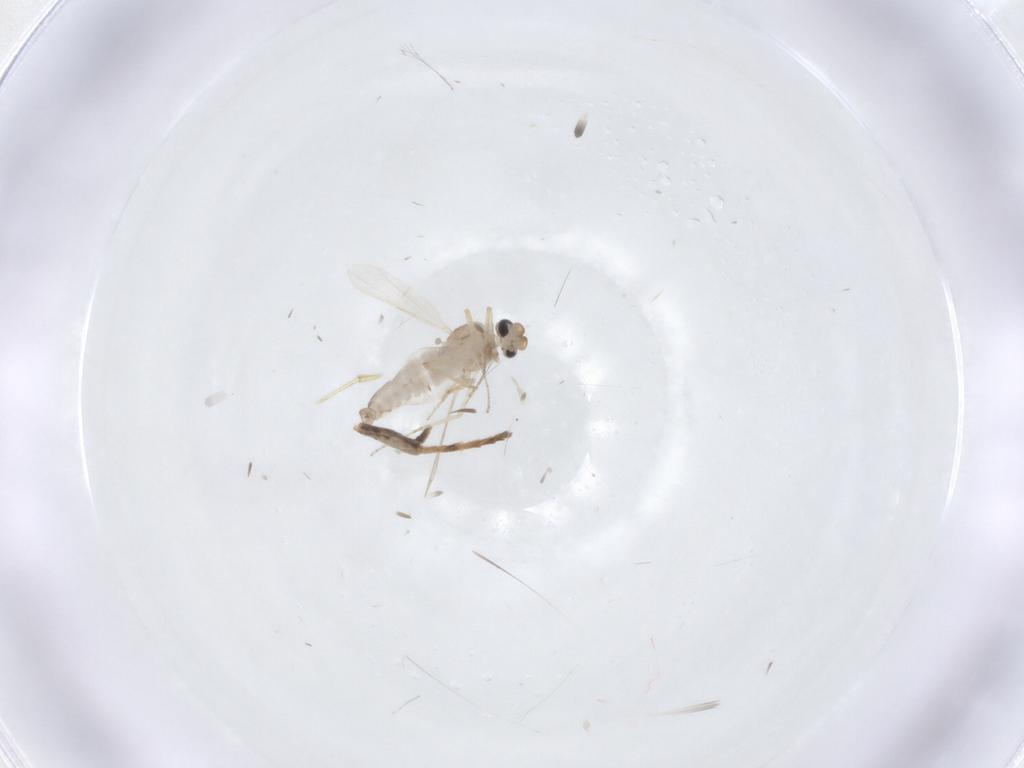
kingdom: Animalia
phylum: Arthropoda
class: Insecta
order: Diptera
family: Ceratopogonidae
